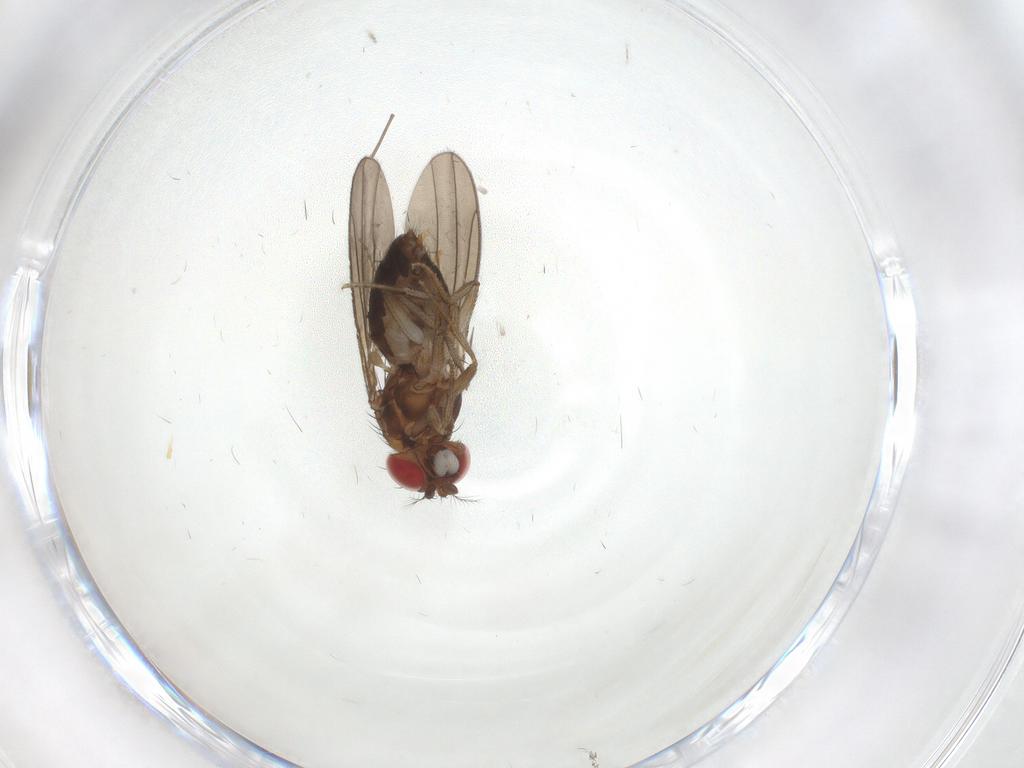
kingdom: Animalia
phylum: Arthropoda
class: Insecta
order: Diptera
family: Drosophilidae
